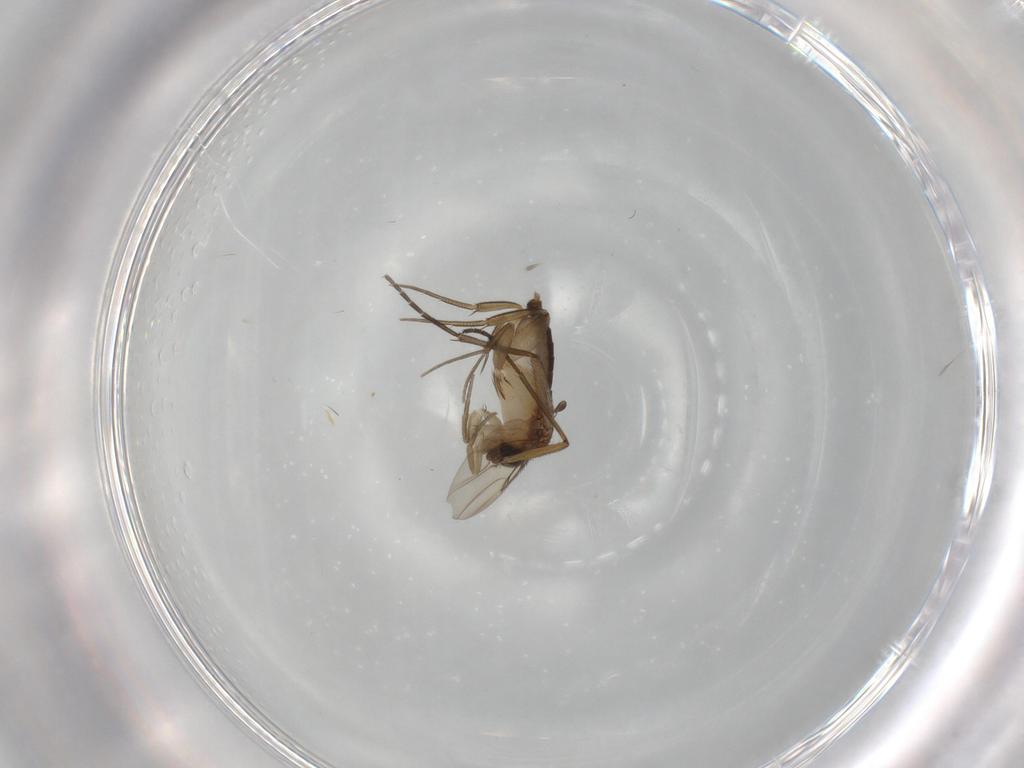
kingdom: Animalia
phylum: Arthropoda
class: Insecta
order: Diptera
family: Phoridae
